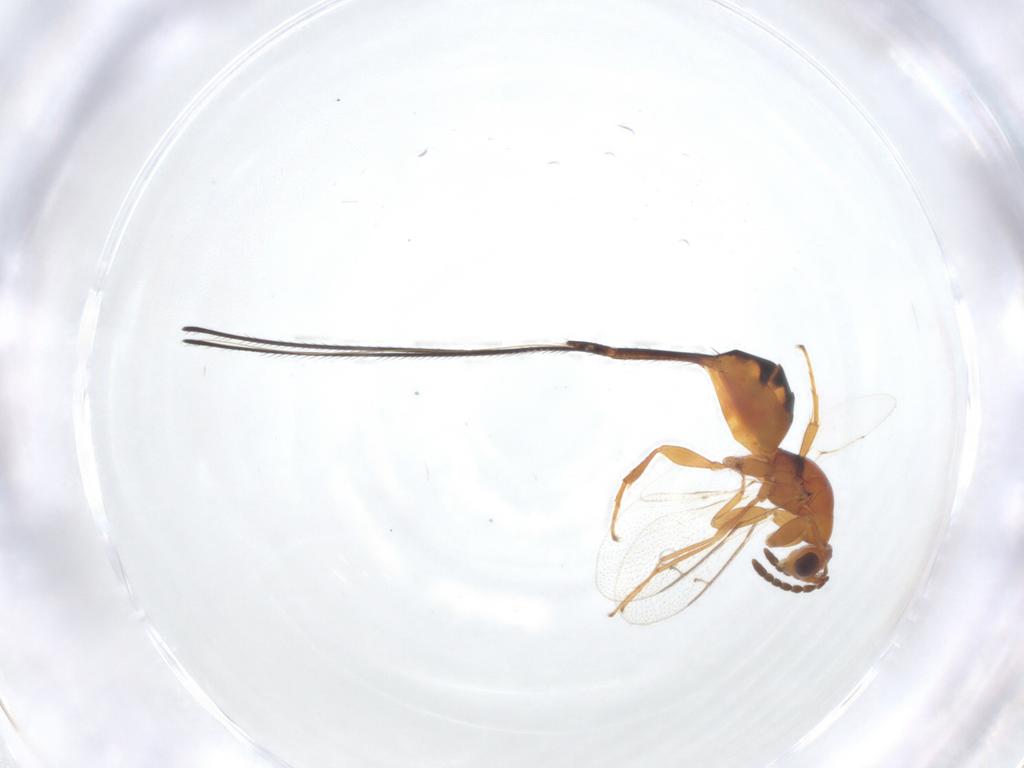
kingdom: Animalia
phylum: Arthropoda
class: Insecta
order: Hymenoptera
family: Pteromalidae
